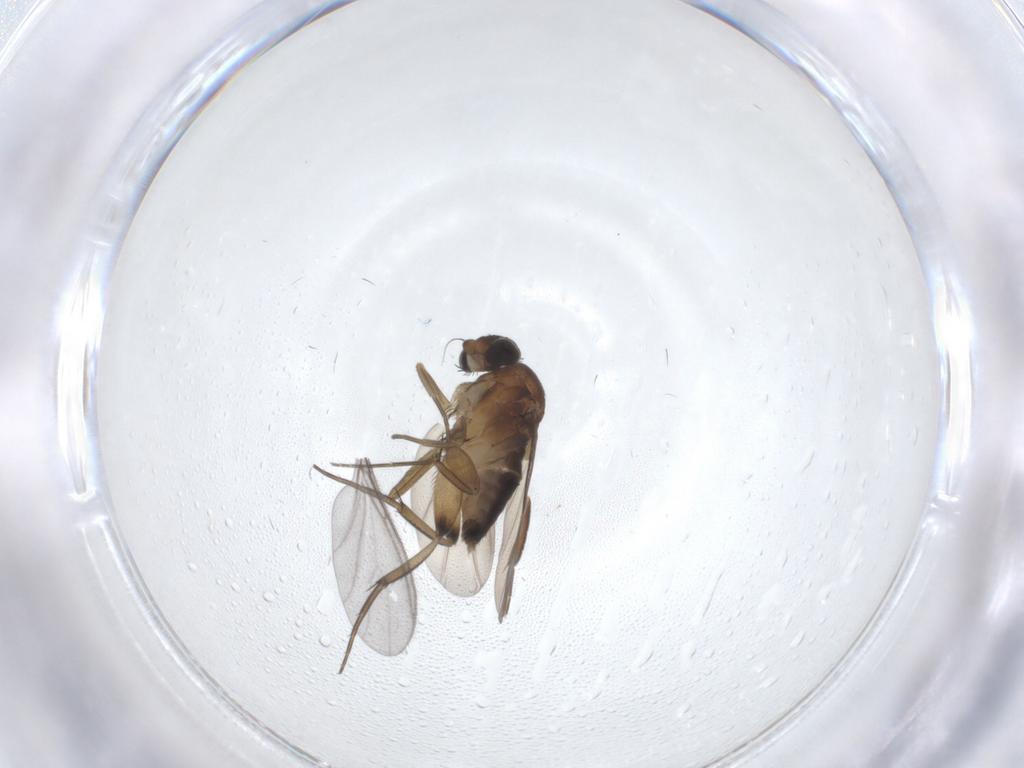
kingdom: Animalia
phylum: Arthropoda
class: Insecta
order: Diptera
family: Phoridae
